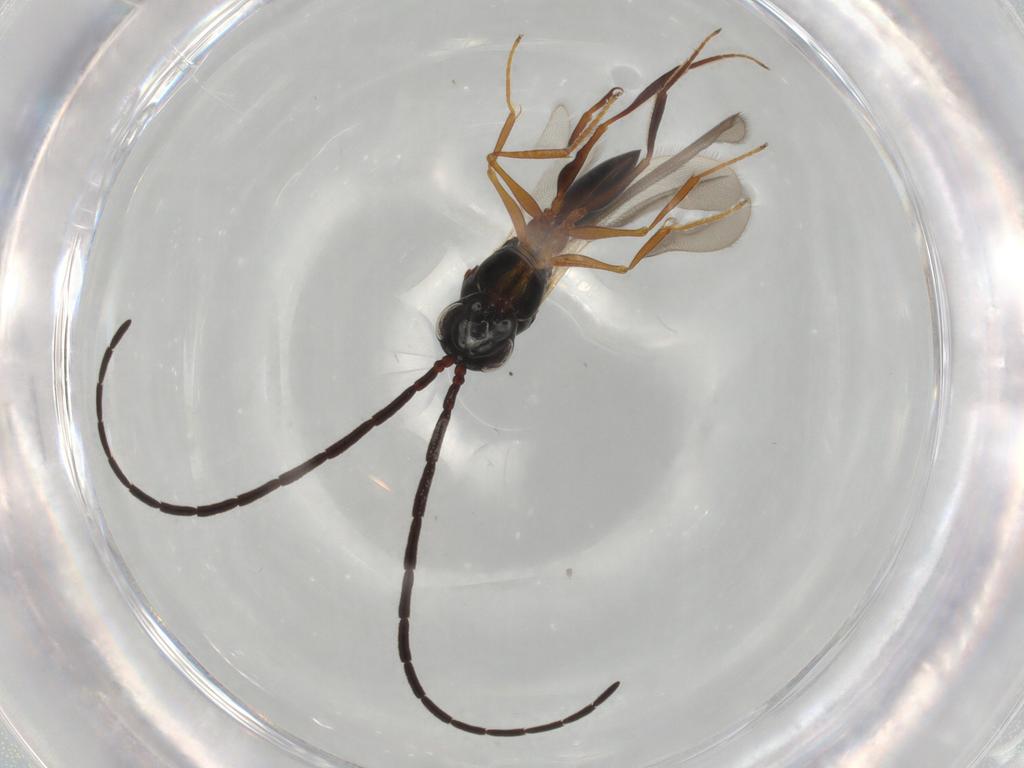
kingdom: Animalia
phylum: Arthropoda
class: Insecta
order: Hymenoptera
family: Figitidae
